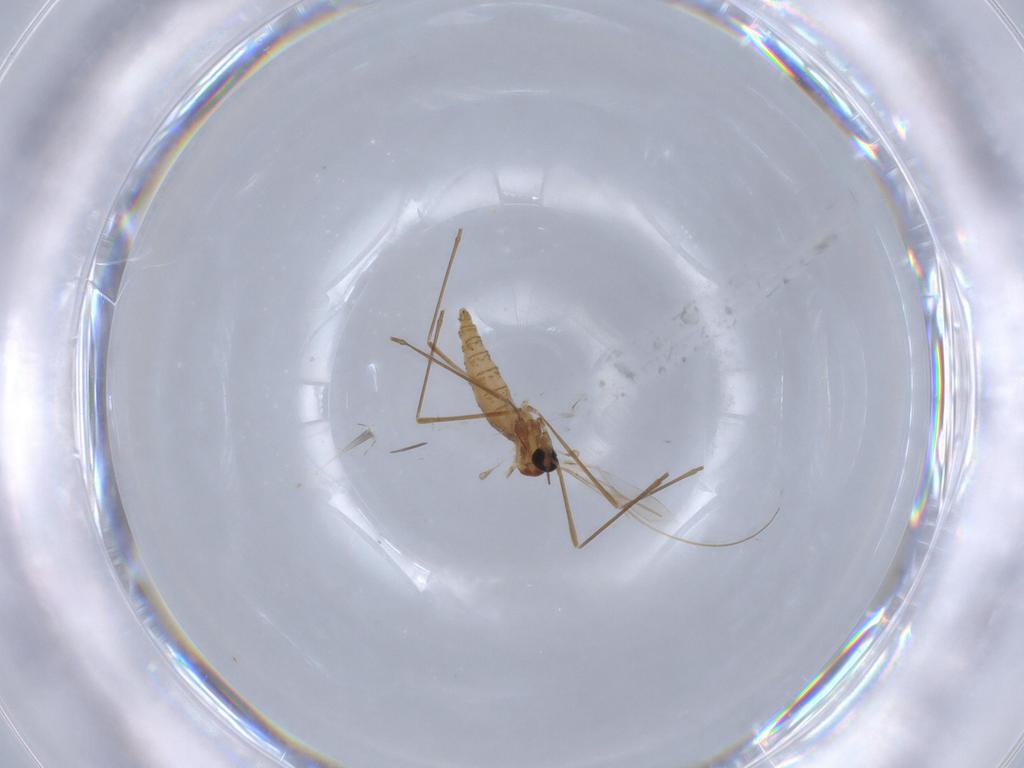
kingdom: Animalia
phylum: Arthropoda
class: Insecta
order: Diptera
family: Cecidomyiidae
